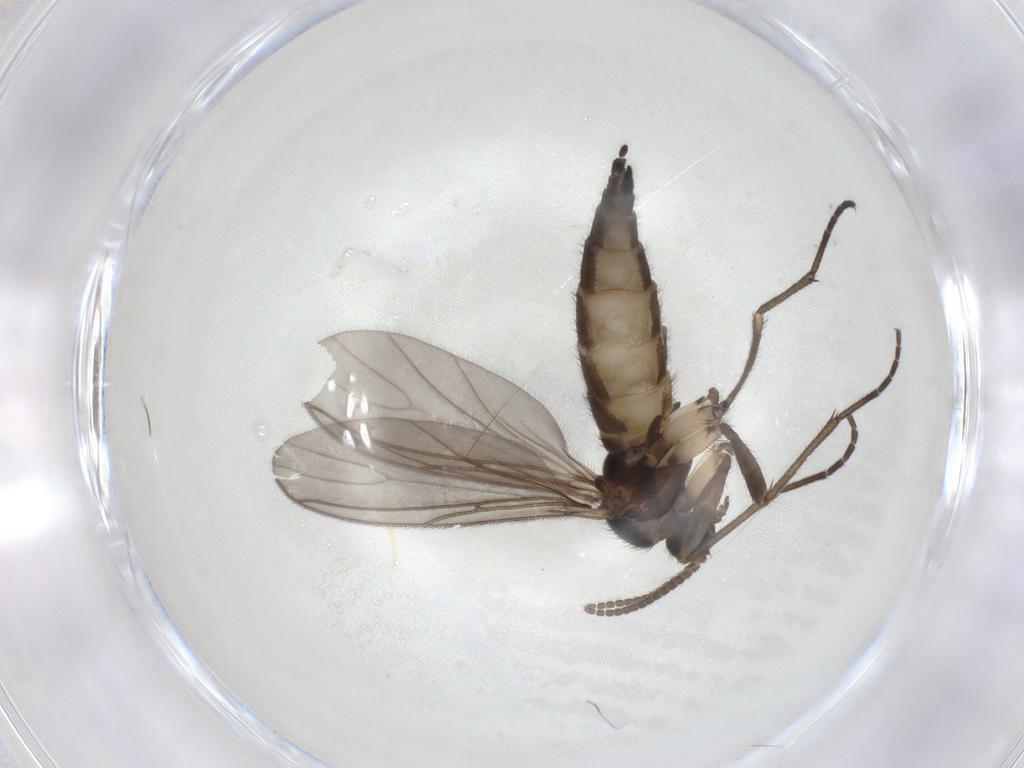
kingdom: Animalia
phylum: Arthropoda
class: Insecta
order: Diptera
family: Sciaridae
